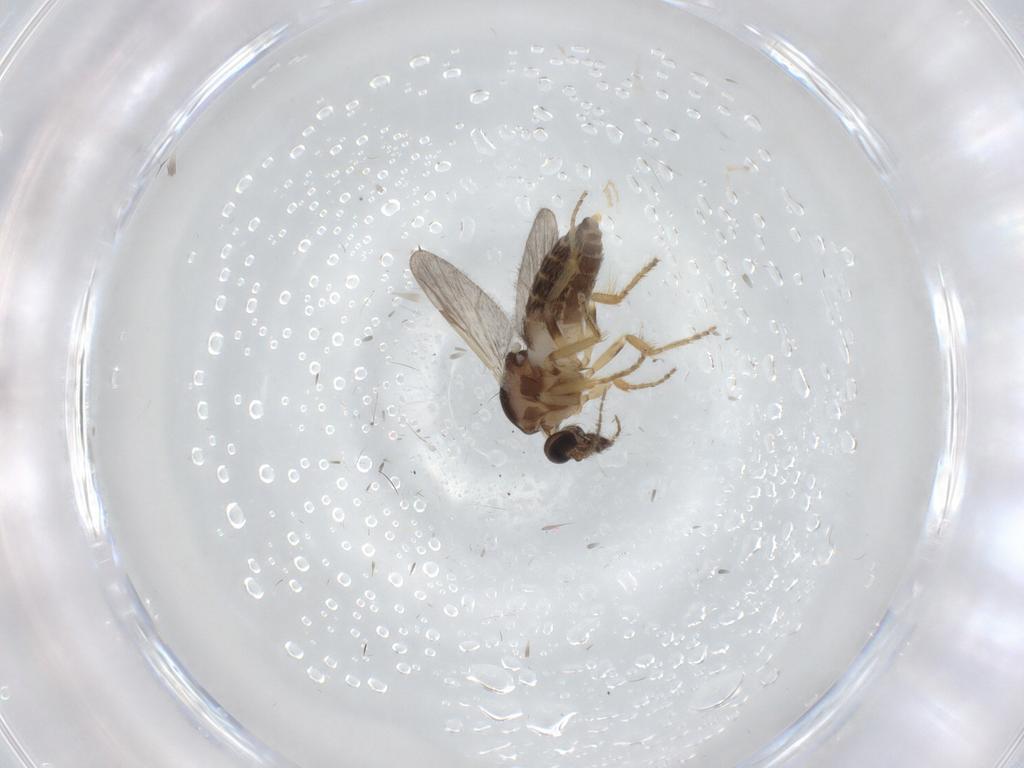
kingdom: Animalia
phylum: Arthropoda
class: Insecta
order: Diptera
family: Ceratopogonidae
